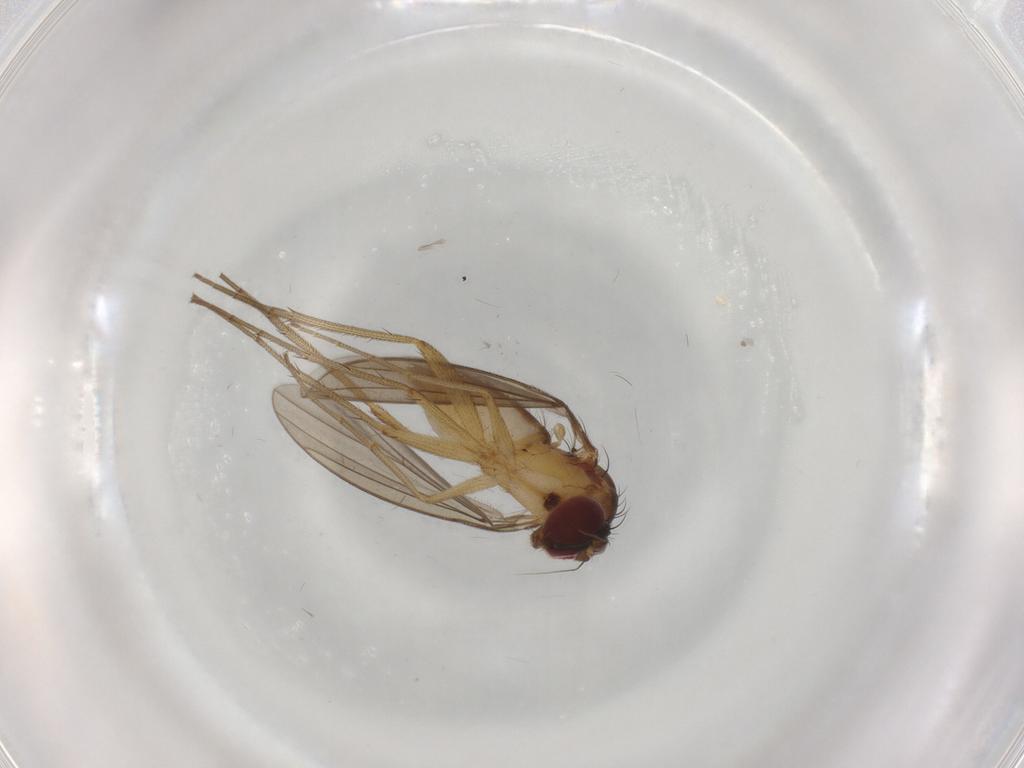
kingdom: Animalia
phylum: Arthropoda
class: Insecta
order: Diptera
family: Dolichopodidae
